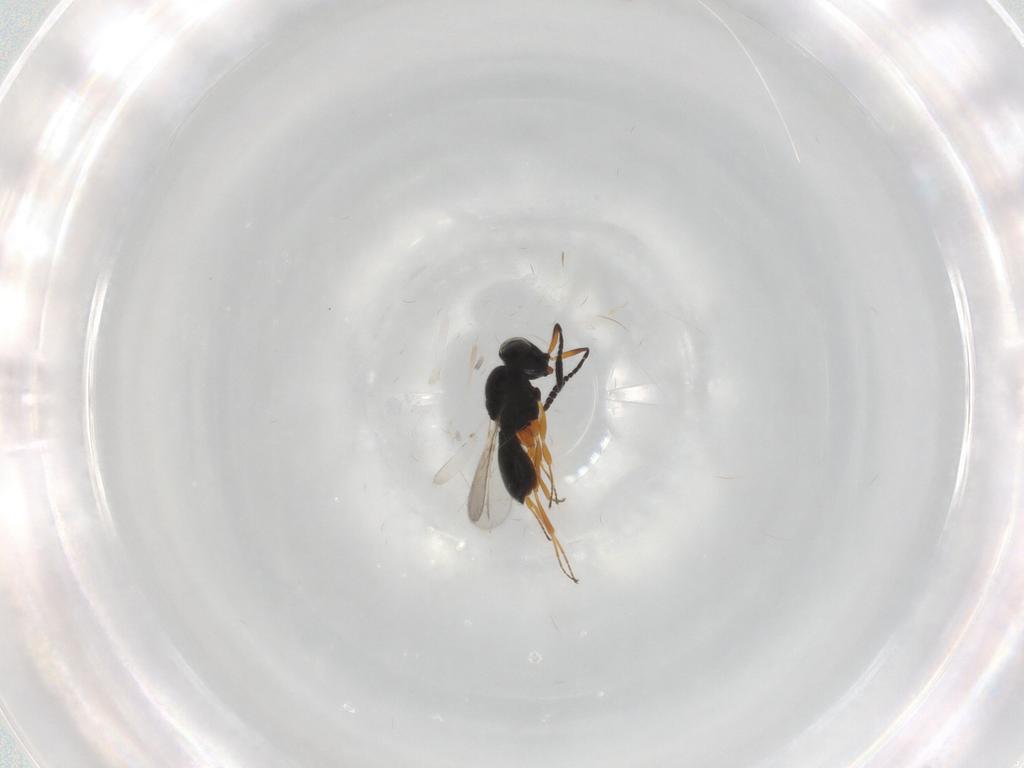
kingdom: Animalia
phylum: Arthropoda
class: Insecta
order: Hymenoptera
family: Scelionidae
